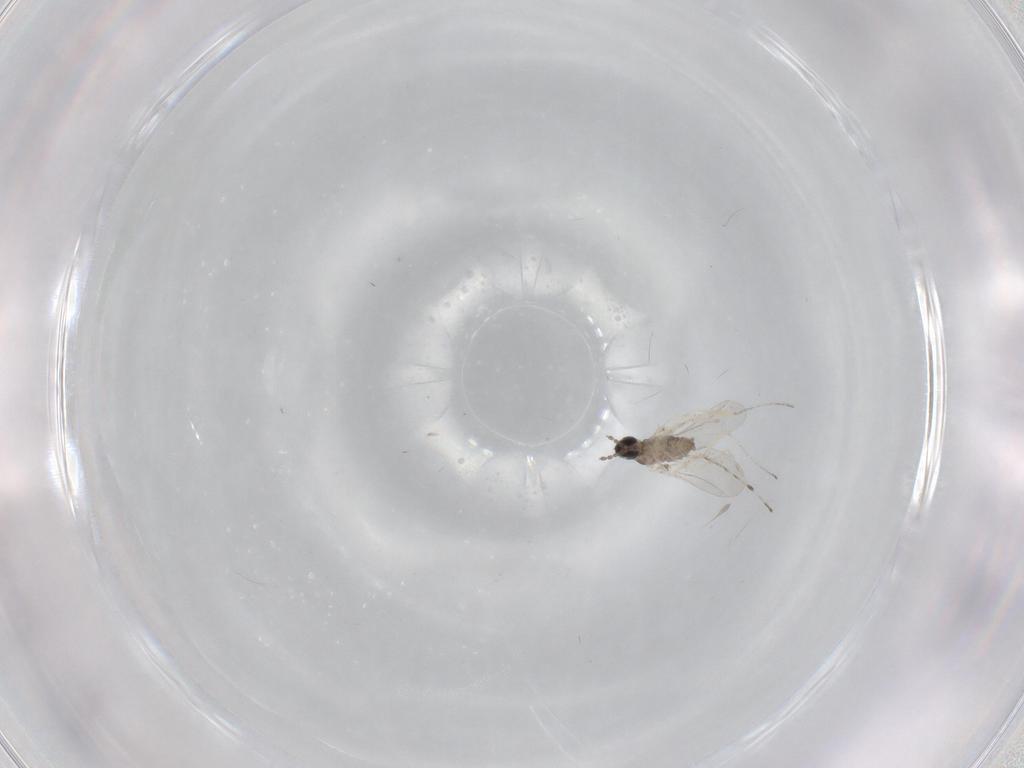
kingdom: Animalia
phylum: Arthropoda
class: Insecta
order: Diptera
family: Cecidomyiidae
